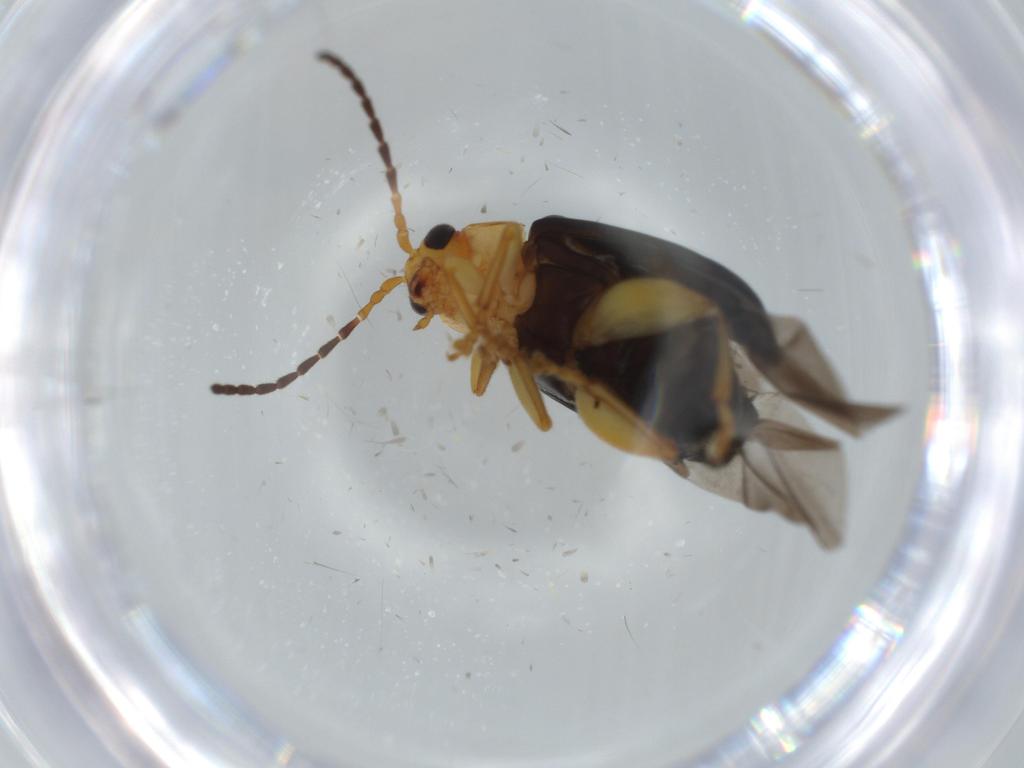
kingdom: Animalia
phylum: Arthropoda
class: Insecta
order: Coleoptera
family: Chrysomelidae
